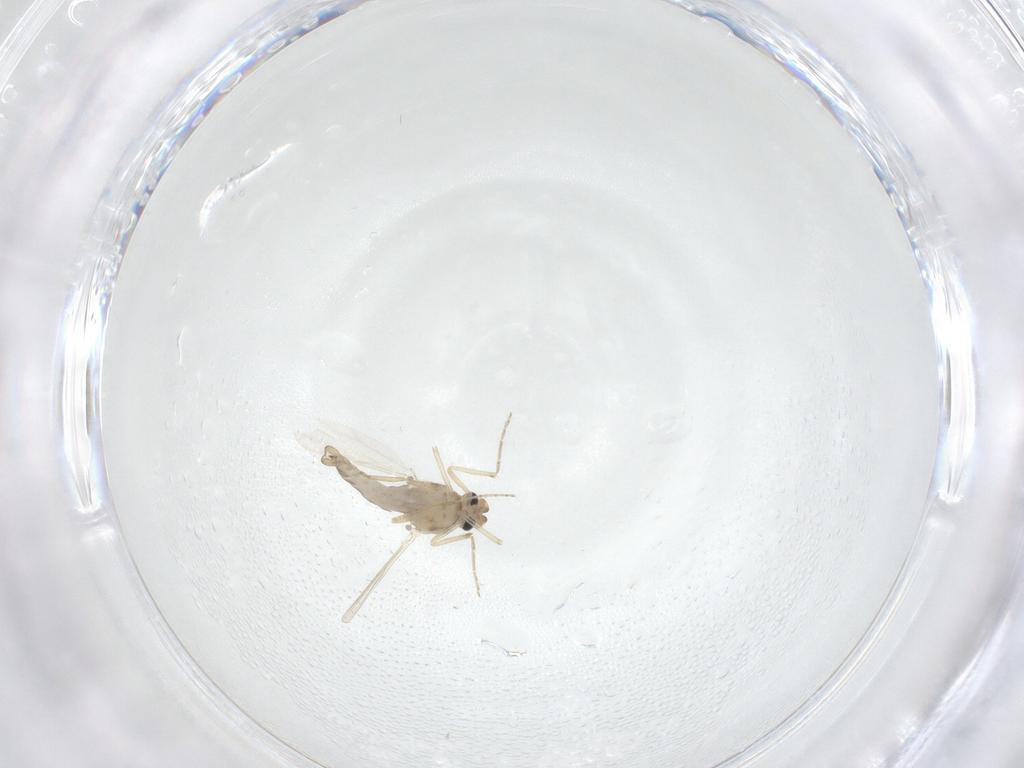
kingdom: Animalia
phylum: Arthropoda
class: Insecta
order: Diptera
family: Ceratopogonidae
